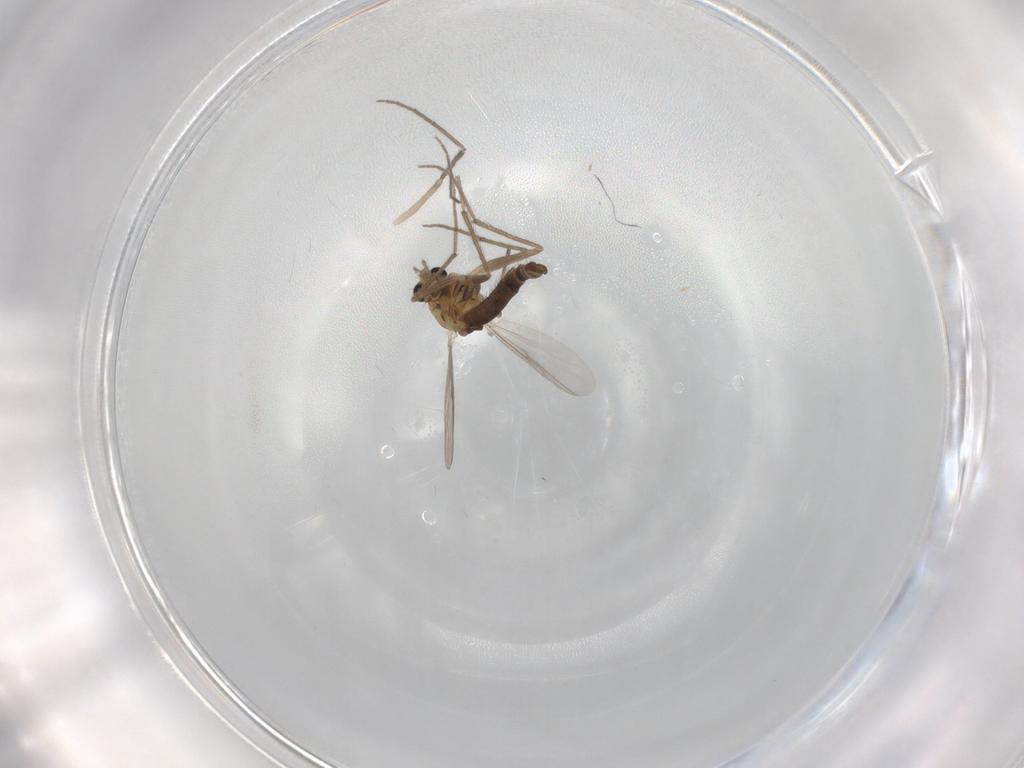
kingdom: Animalia
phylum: Arthropoda
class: Insecta
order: Diptera
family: Chironomidae
